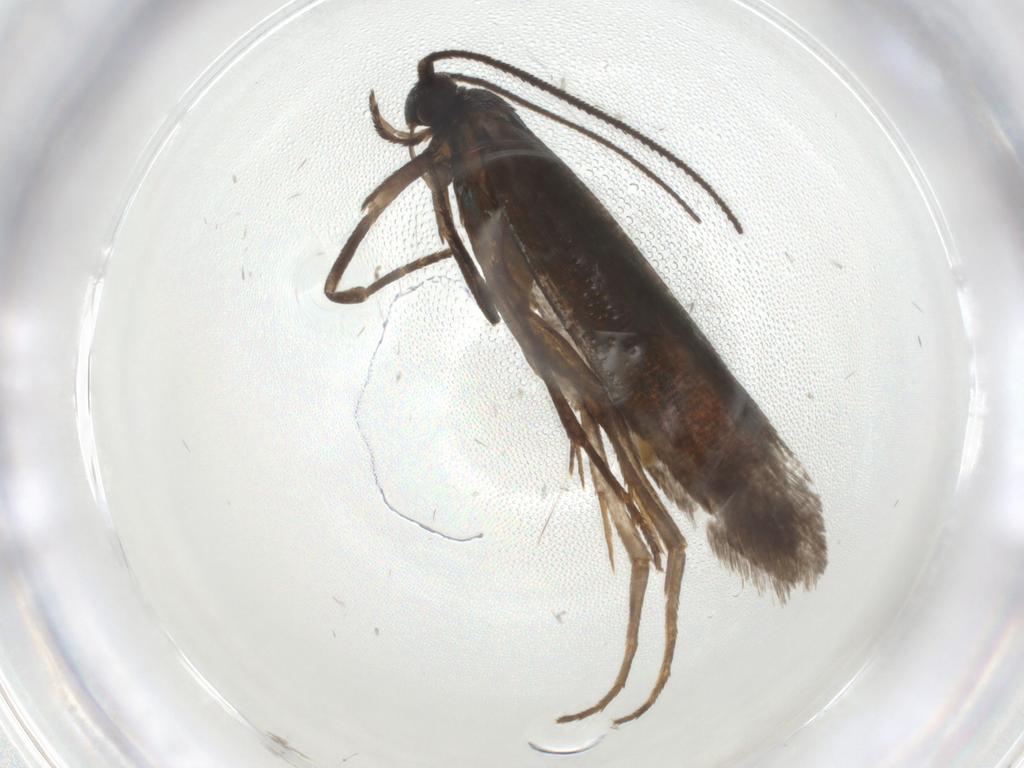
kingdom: Animalia
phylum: Arthropoda
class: Insecta
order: Lepidoptera
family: Argyresthiidae
